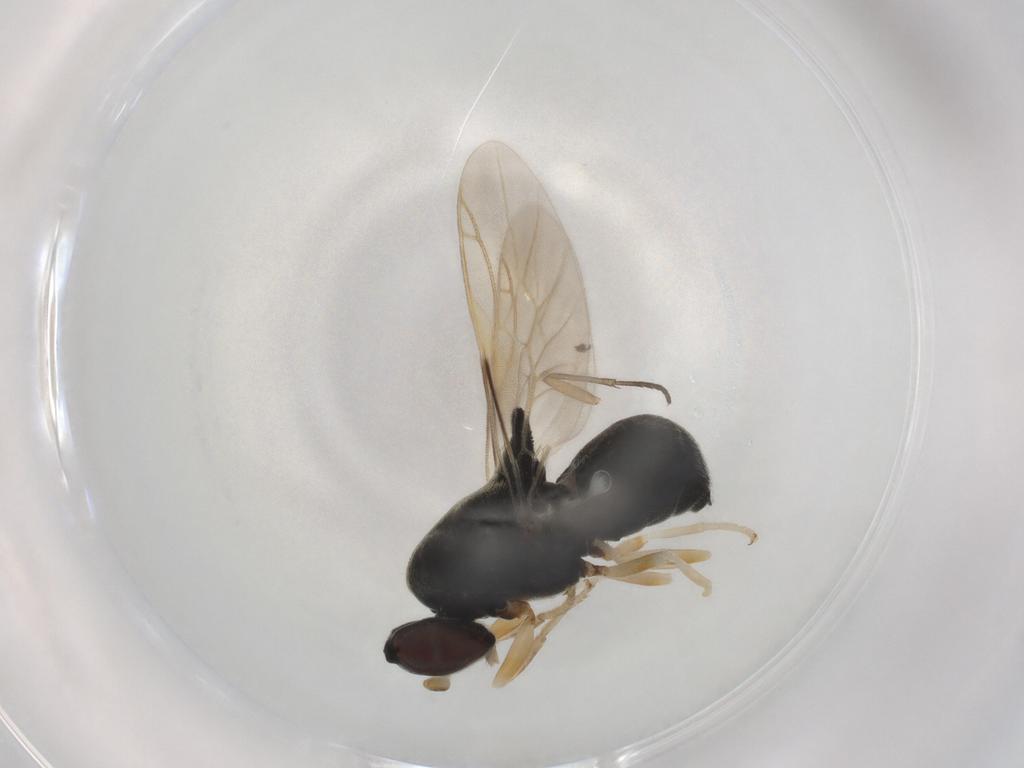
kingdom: Animalia
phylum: Arthropoda
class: Insecta
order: Diptera
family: Stratiomyidae
